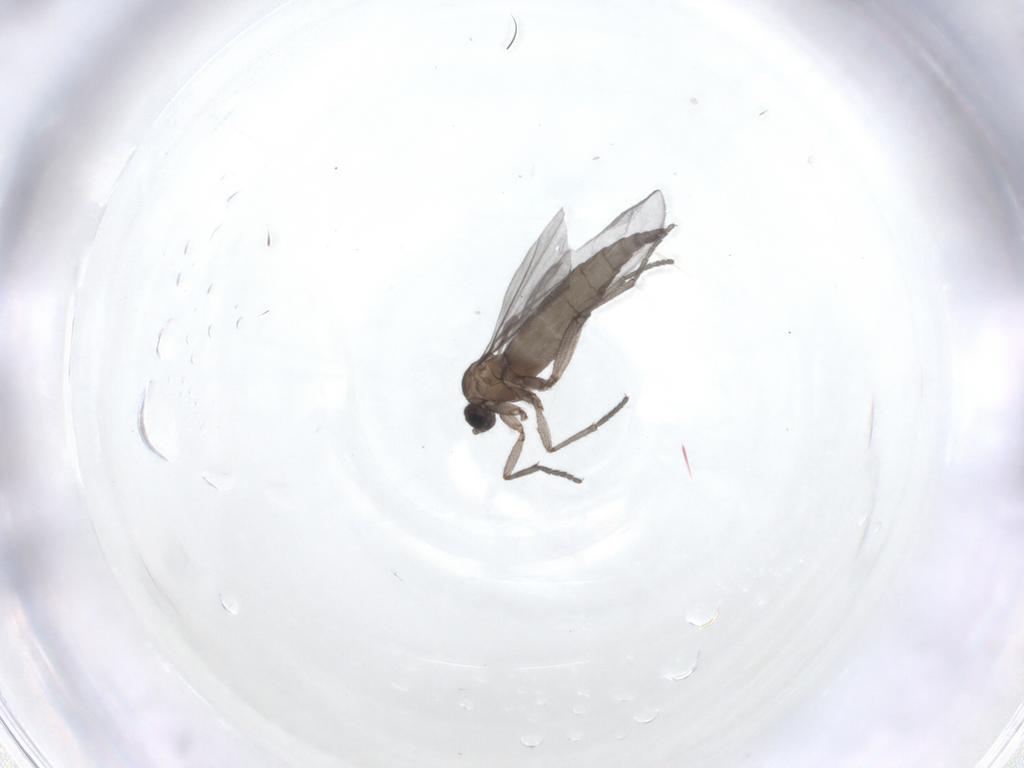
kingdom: Animalia
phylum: Arthropoda
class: Insecta
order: Diptera
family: Sciaridae
